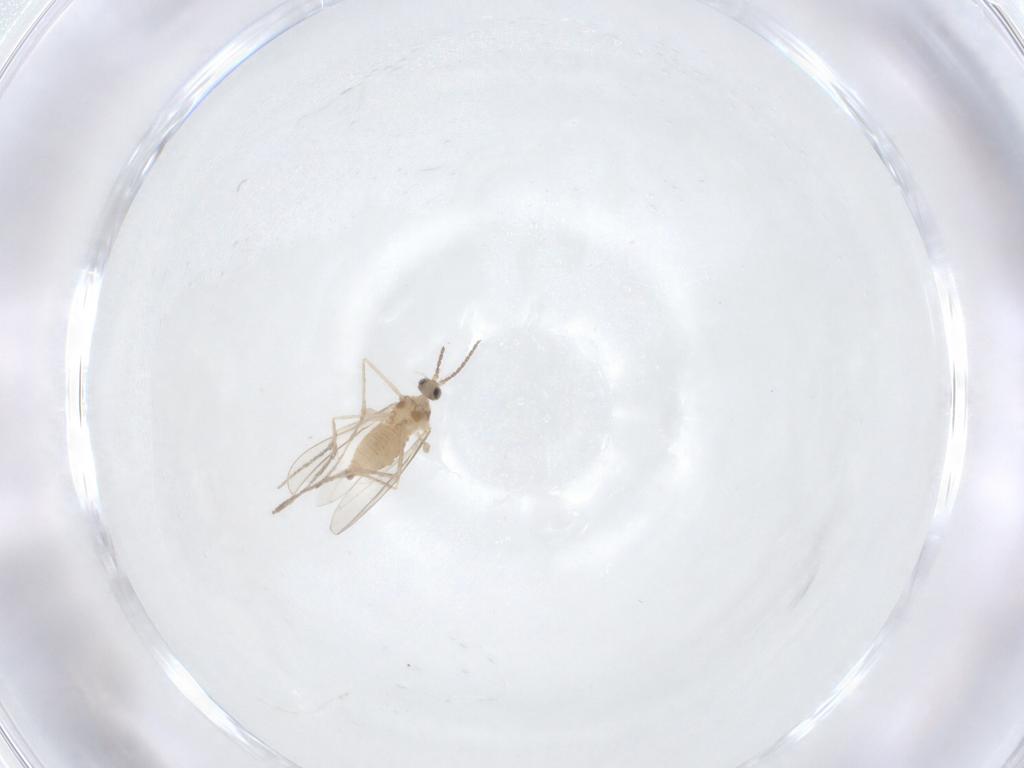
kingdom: Animalia
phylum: Arthropoda
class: Insecta
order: Diptera
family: Cecidomyiidae
